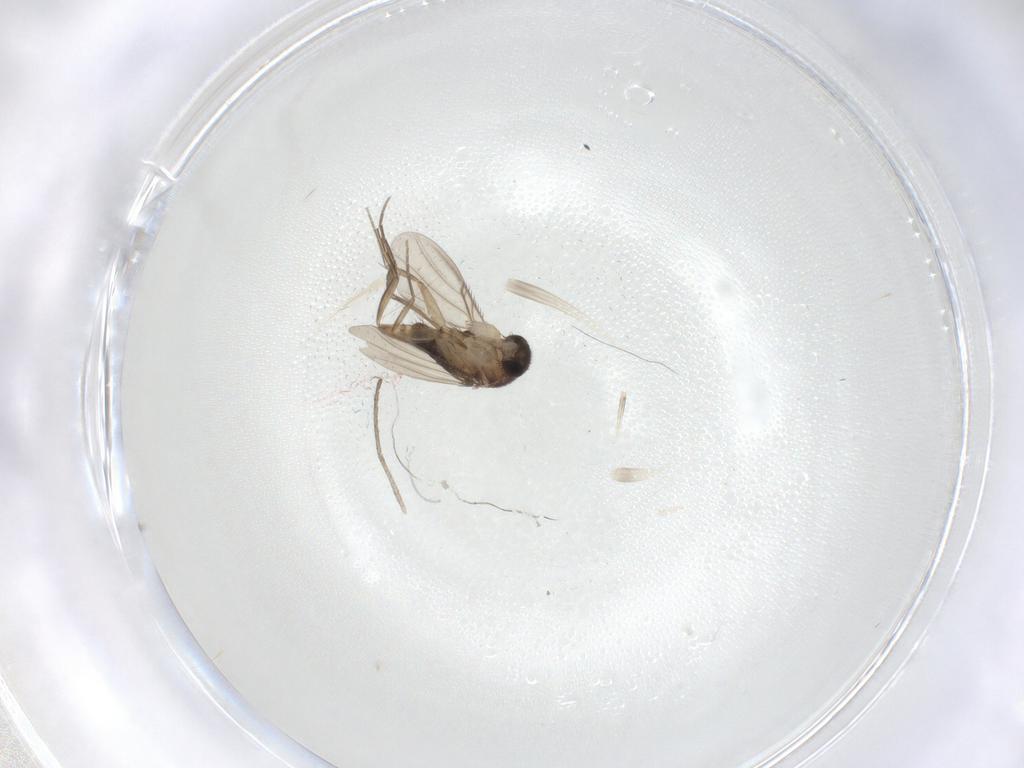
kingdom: Animalia
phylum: Arthropoda
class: Insecta
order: Diptera
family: Phoridae
